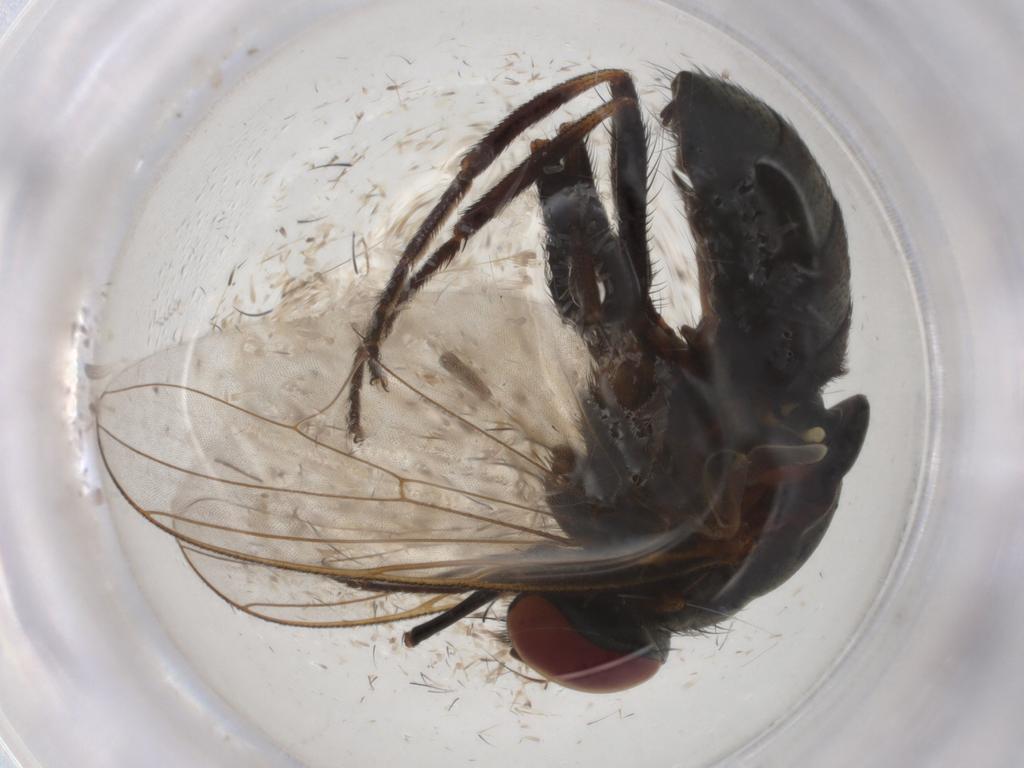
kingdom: Animalia
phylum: Arthropoda
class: Insecta
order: Diptera
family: Muscidae
